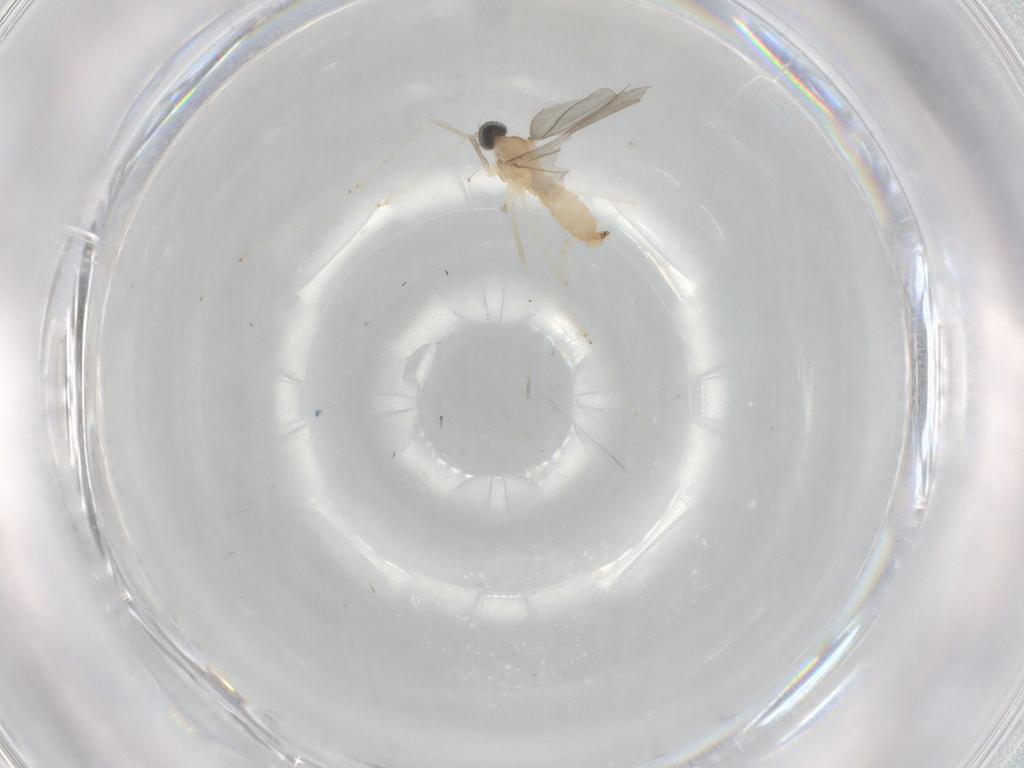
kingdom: Animalia
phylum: Arthropoda
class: Insecta
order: Diptera
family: Cecidomyiidae
